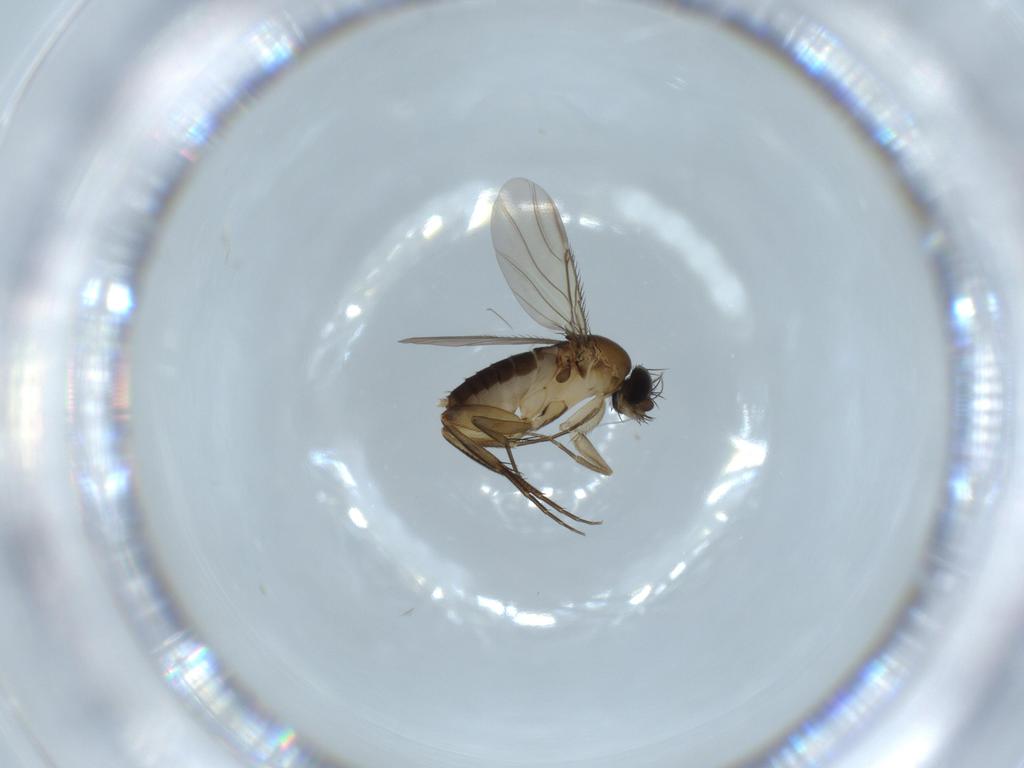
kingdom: Animalia
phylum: Arthropoda
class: Insecta
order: Diptera
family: Phoridae
